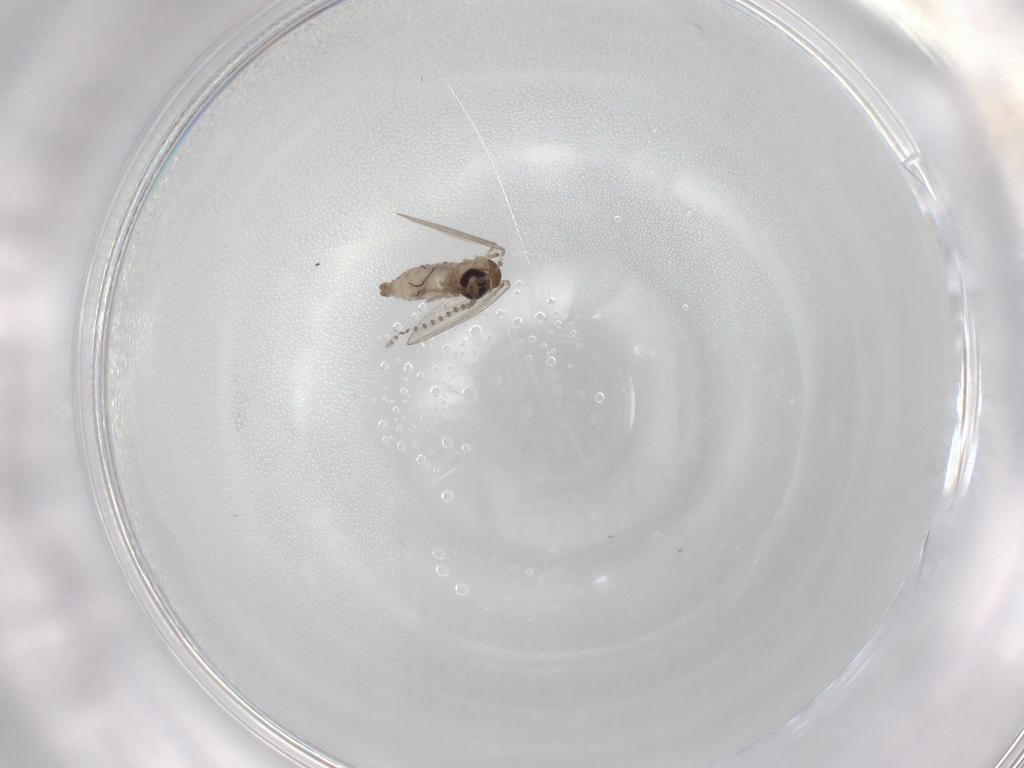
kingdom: Animalia
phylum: Arthropoda
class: Insecta
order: Diptera
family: Psychodidae
